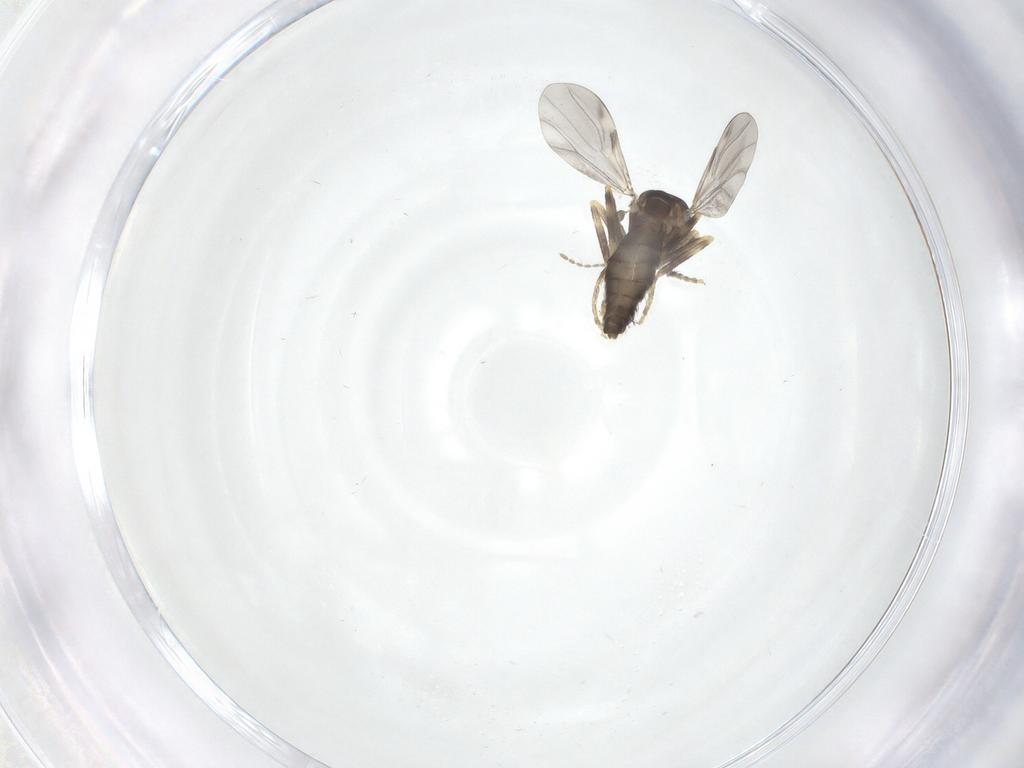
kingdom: Animalia
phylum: Arthropoda
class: Insecta
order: Diptera
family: Ceratopogonidae
